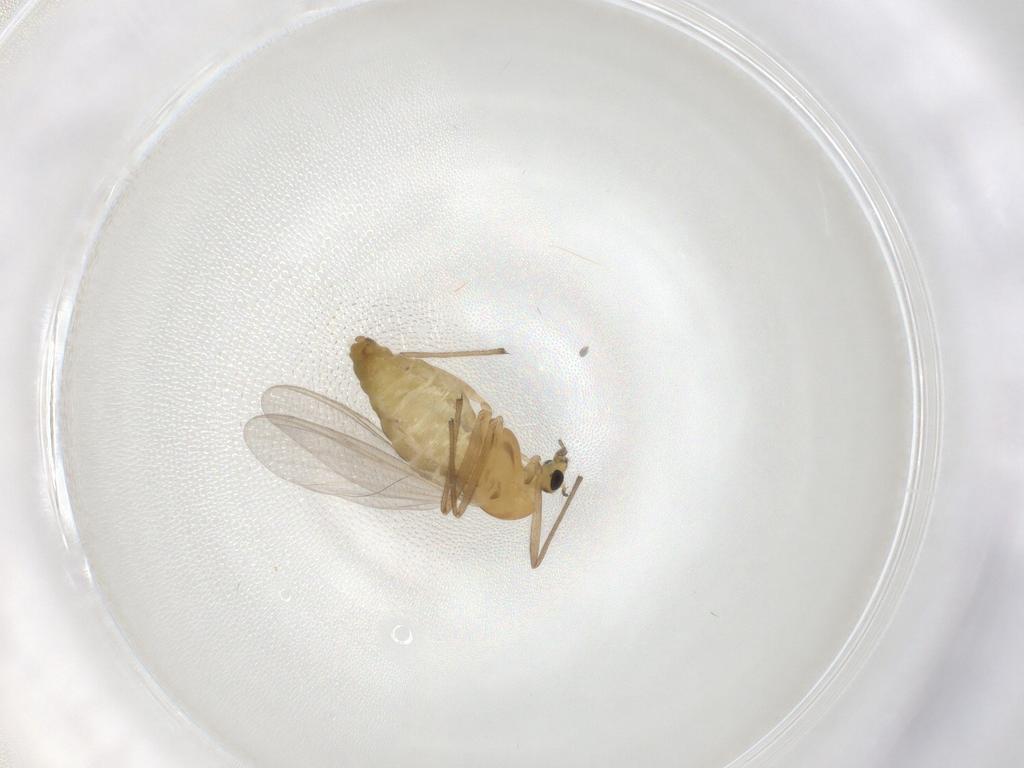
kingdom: Animalia
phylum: Arthropoda
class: Insecta
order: Diptera
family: Chironomidae
